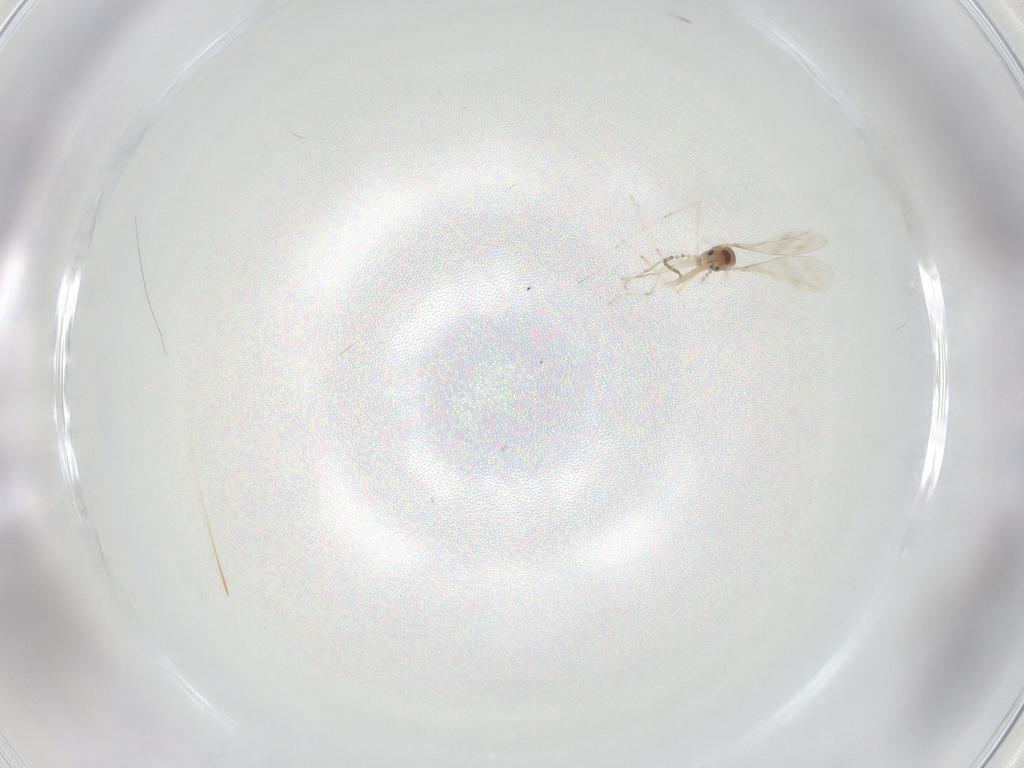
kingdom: Animalia
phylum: Arthropoda
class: Insecta
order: Diptera
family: Cecidomyiidae
